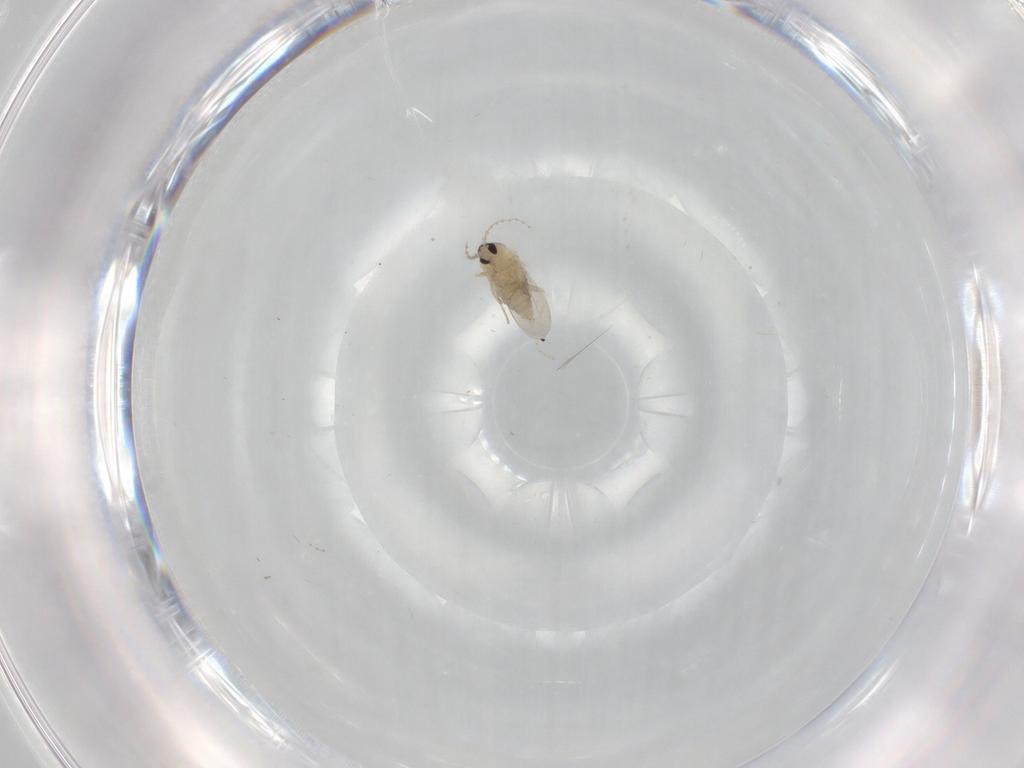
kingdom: Animalia
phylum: Arthropoda
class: Insecta
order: Diptera
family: Cecidomyiidae
